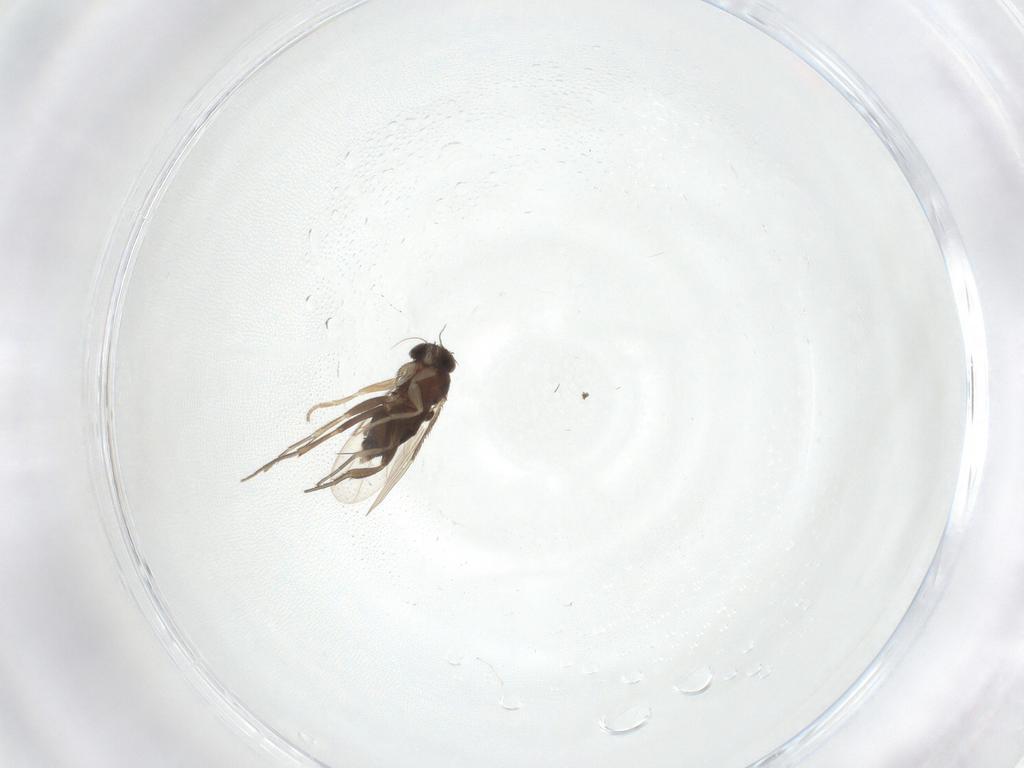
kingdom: Animalia
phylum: Arthropoda
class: Insecta
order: Diptera
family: Phoridae
